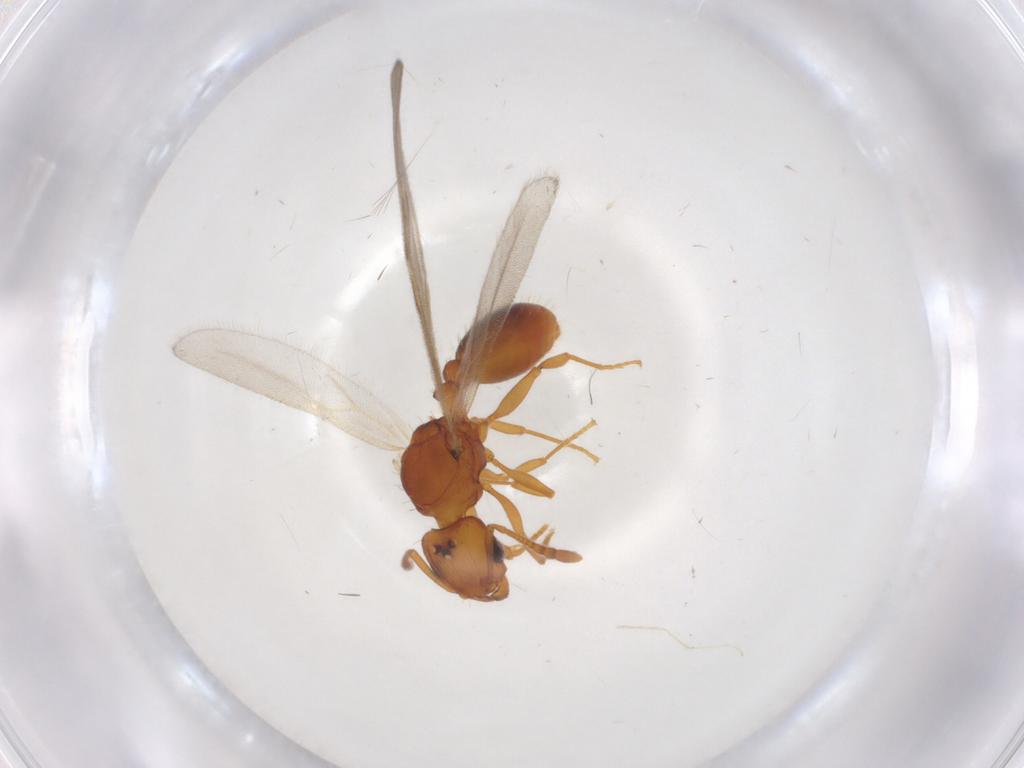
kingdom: Animalia
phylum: Arthropoda
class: Insecta
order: Hymenoptera
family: Formicidae
